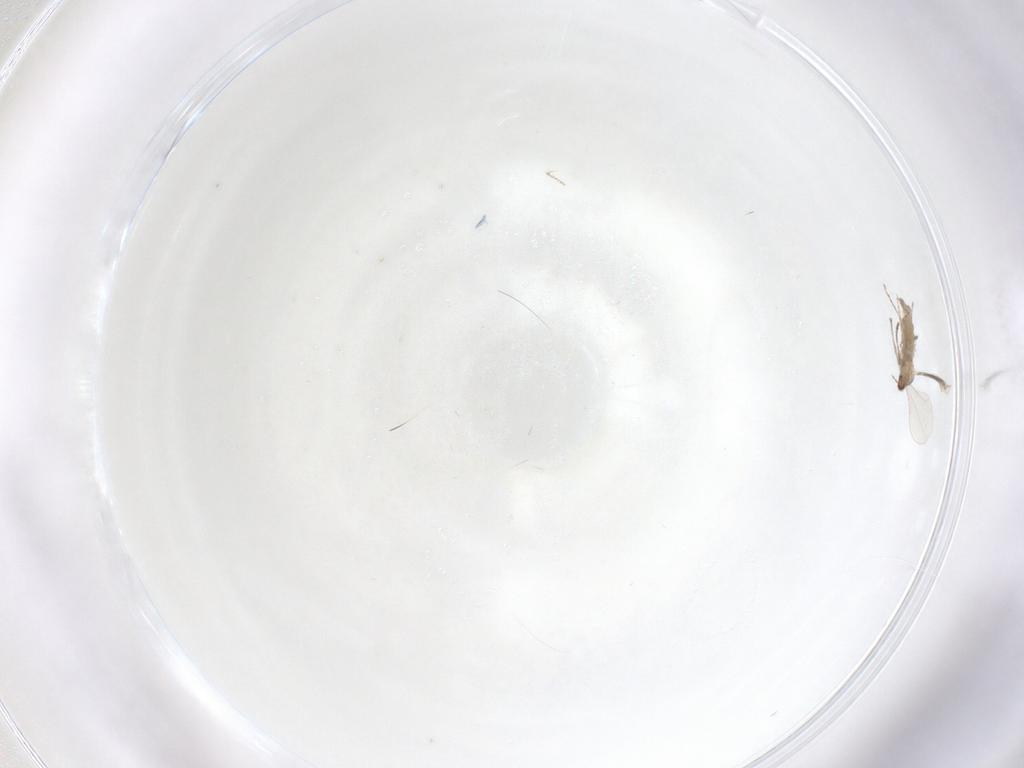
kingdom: Animalia
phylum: Arthropoda
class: Insecta
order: Diptera
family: Cecidomyiidae
